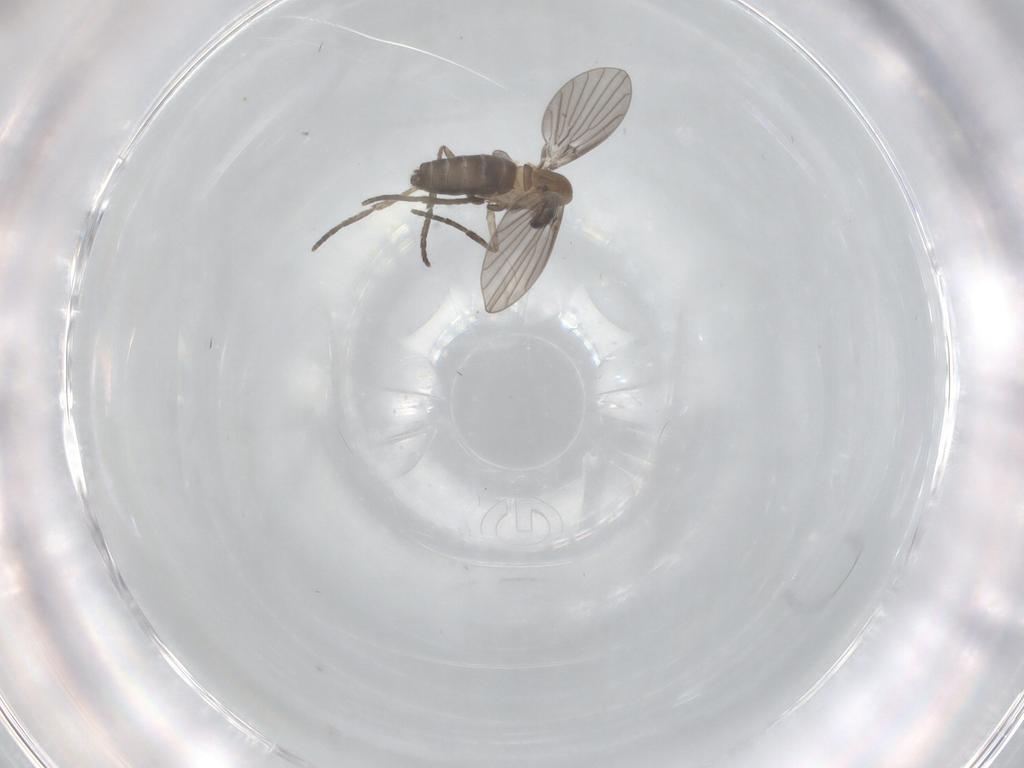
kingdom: Animalia
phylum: Arthropoda
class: Insecta
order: Diptera
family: Psychodidae
